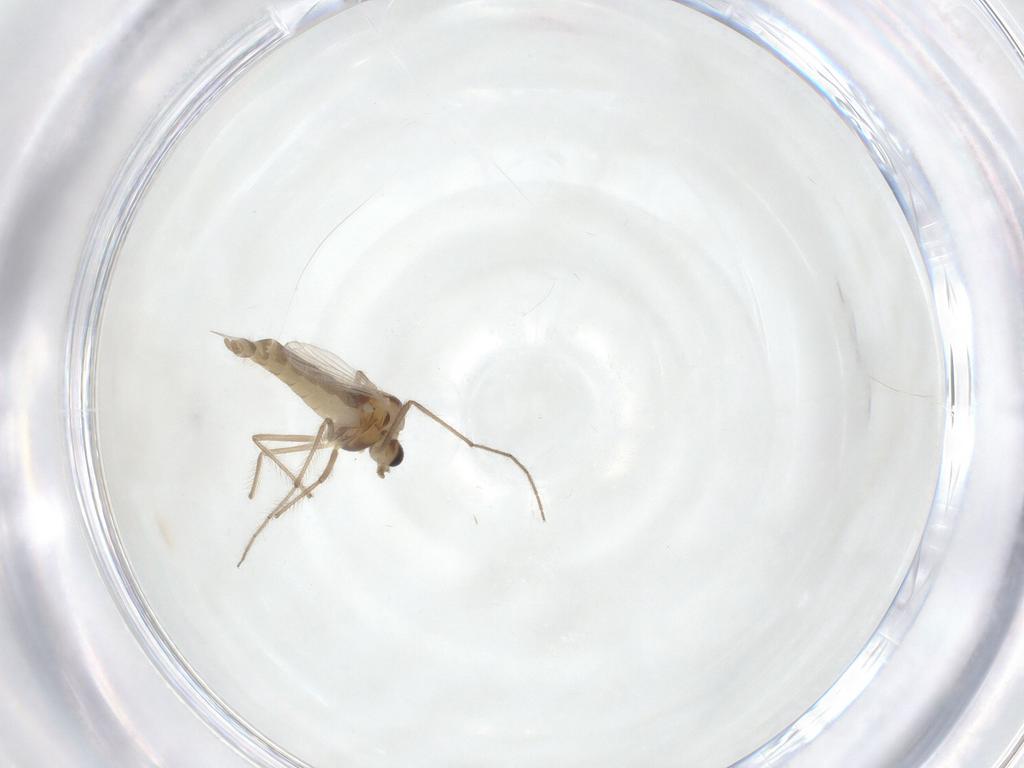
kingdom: Animalia
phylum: Arthropoda
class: Insecta
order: Diptera
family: Chironomidae
